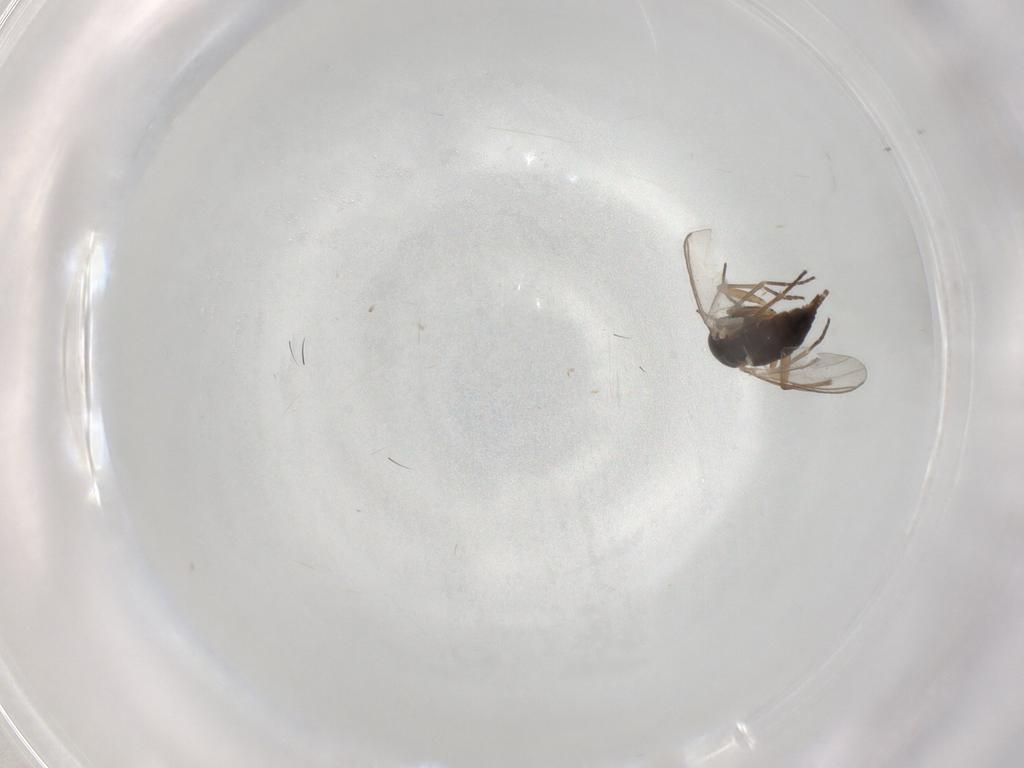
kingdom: Animalia
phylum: Arthropoda
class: Insecta
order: Diptera
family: Sciaridae
